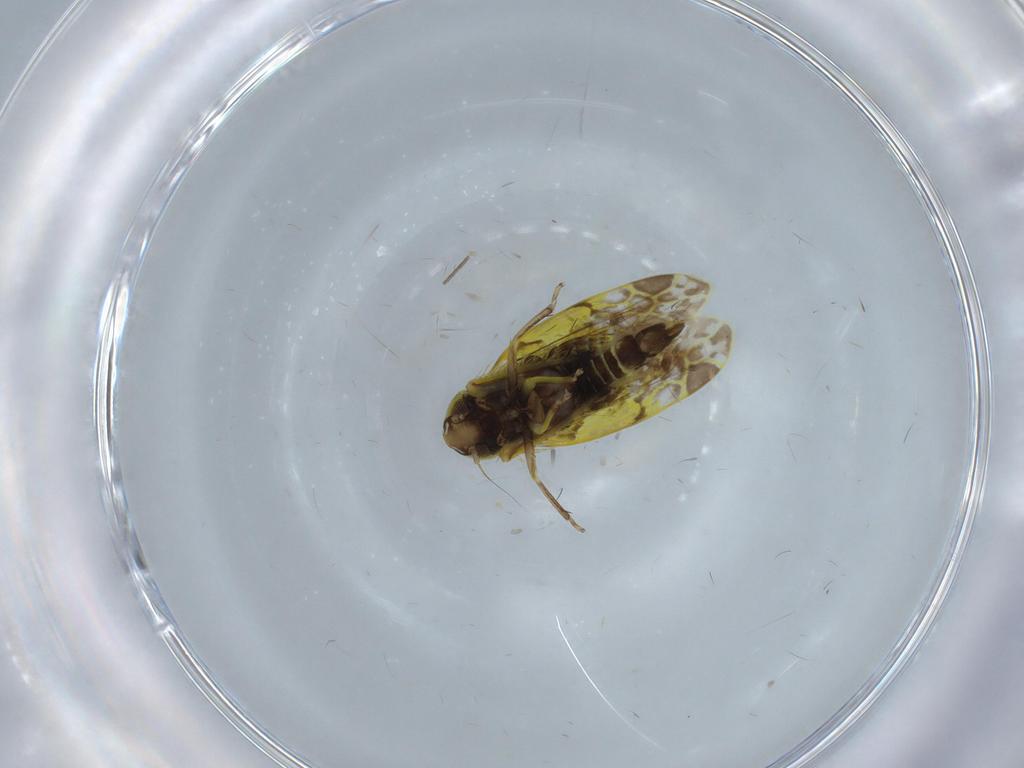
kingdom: Animalia
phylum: Arthropoda
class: Insecta
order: Hemiptera
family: Cicadellidae
